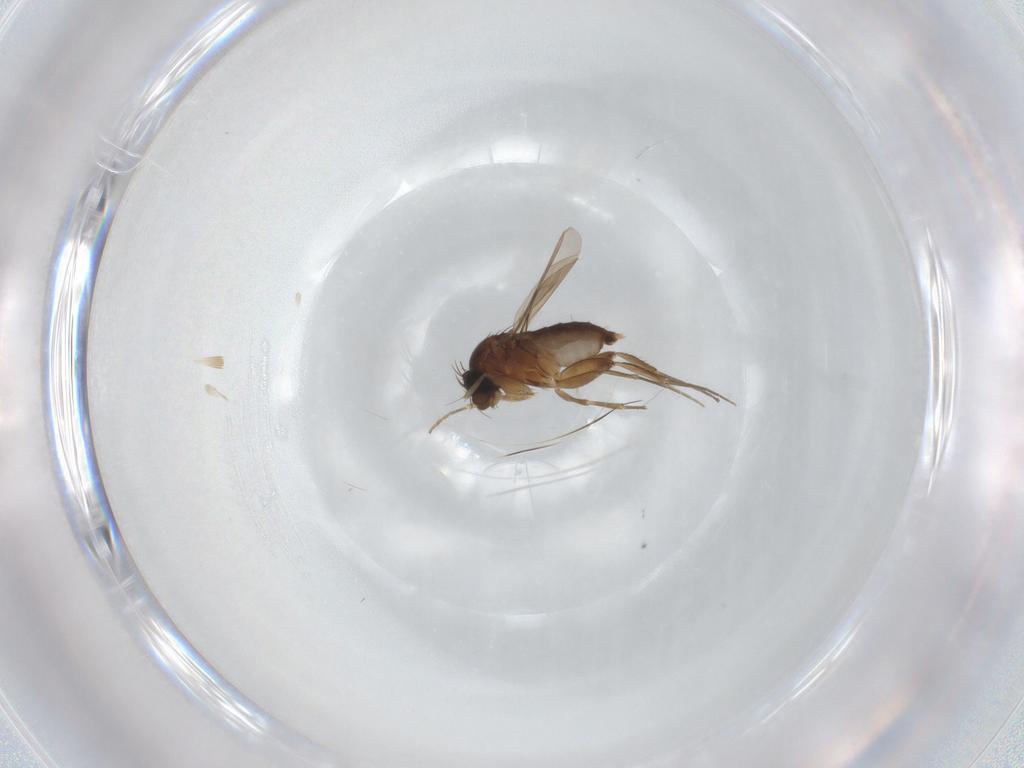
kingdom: Animalia
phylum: Arthropoda
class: Insecta
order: Diptera
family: Phoridae
